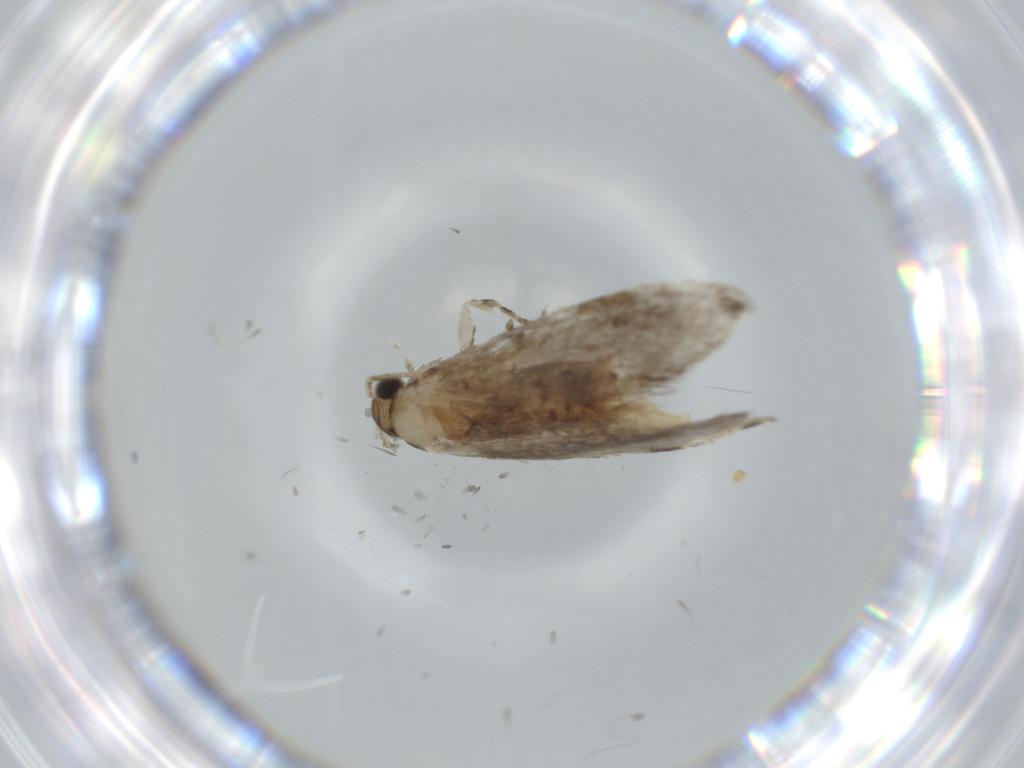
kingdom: Animalia
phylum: Arthropoda
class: Insecta
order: Lepidoptera
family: Tineidae
